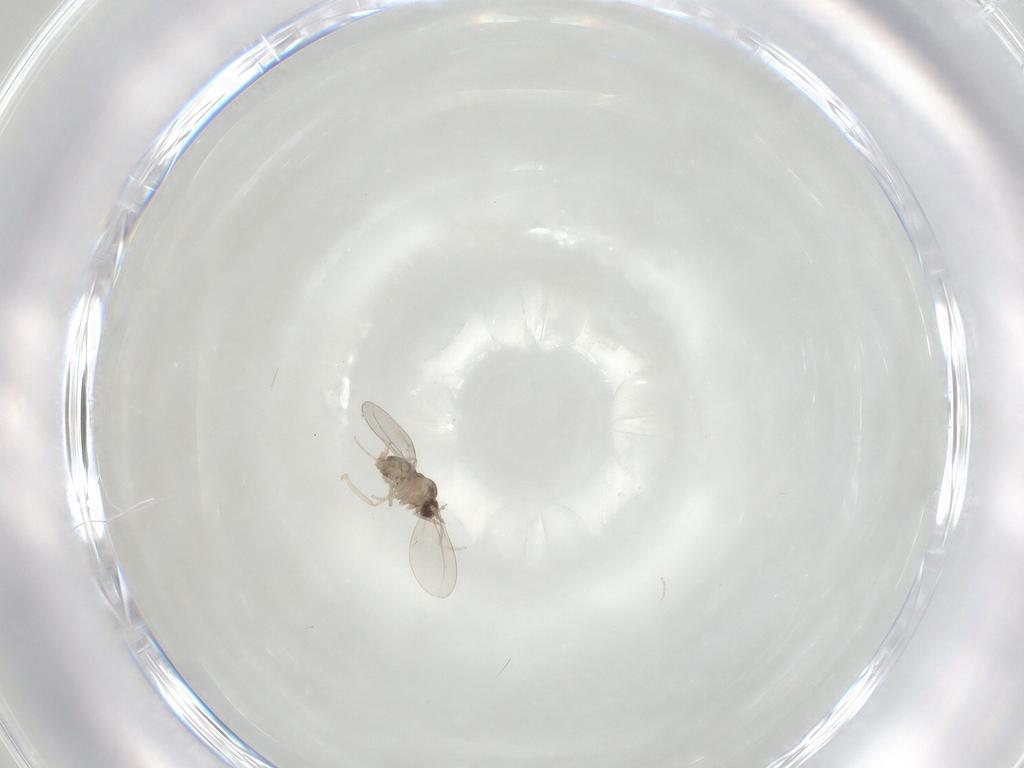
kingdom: Animalia
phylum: Arthropoda
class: Insecta
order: Diptera
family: Cecidomyiidae
